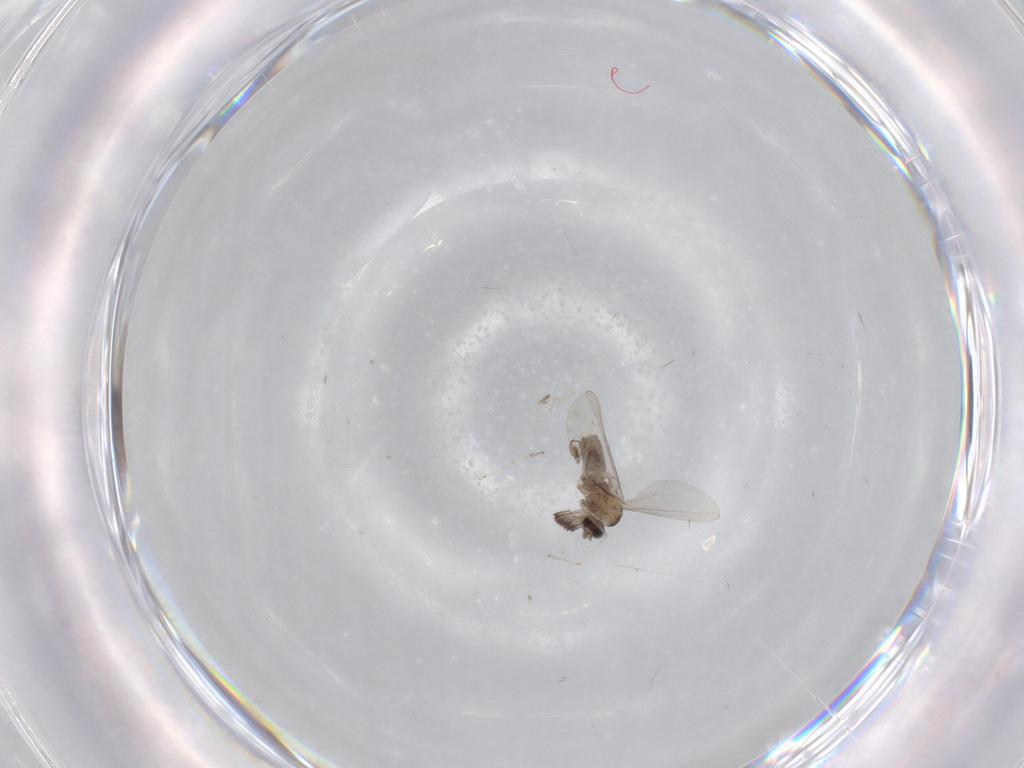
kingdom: Animalia
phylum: Arthropoda
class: Insecta
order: Diptera
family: Cecidomyiidae
